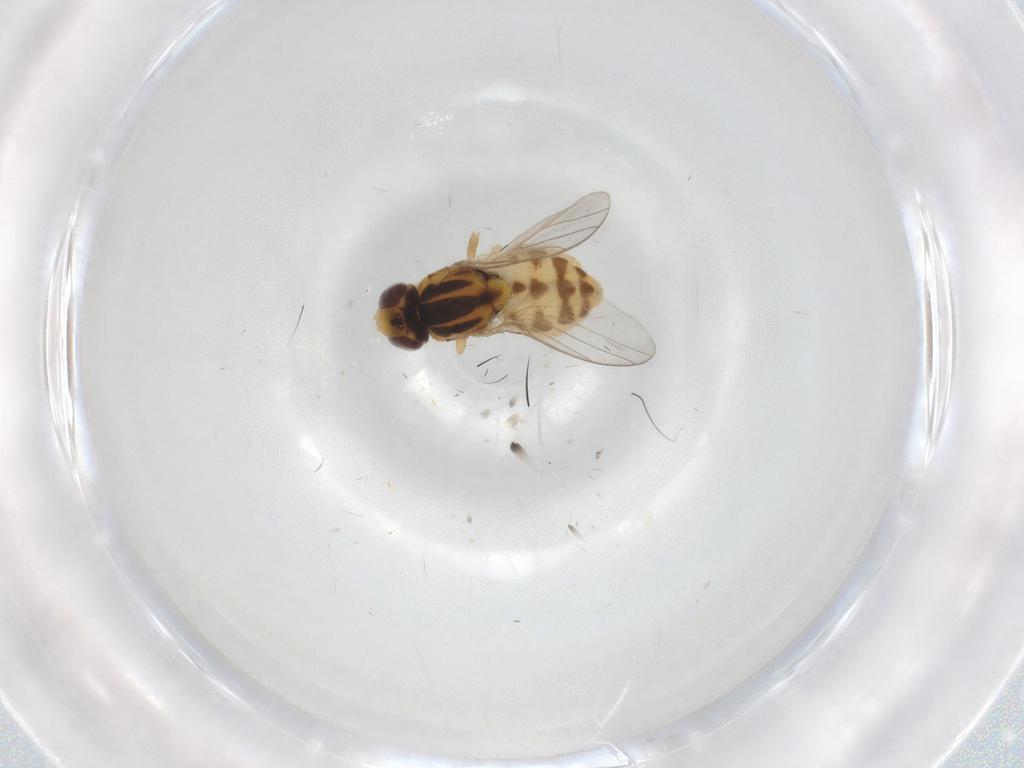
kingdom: Animalia
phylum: Arthropoda
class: Insecta
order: Diptera
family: Chloropidae
